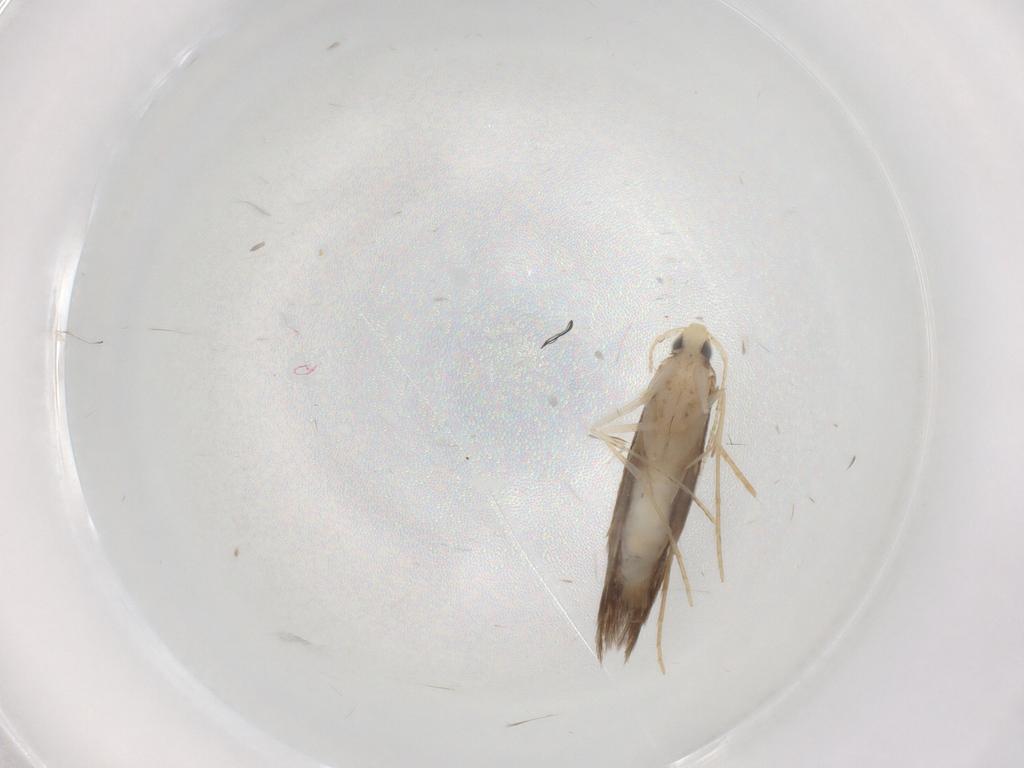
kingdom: Animalia
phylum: Arthropoda
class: Insecta
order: Lepidoptera
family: Psychidae
